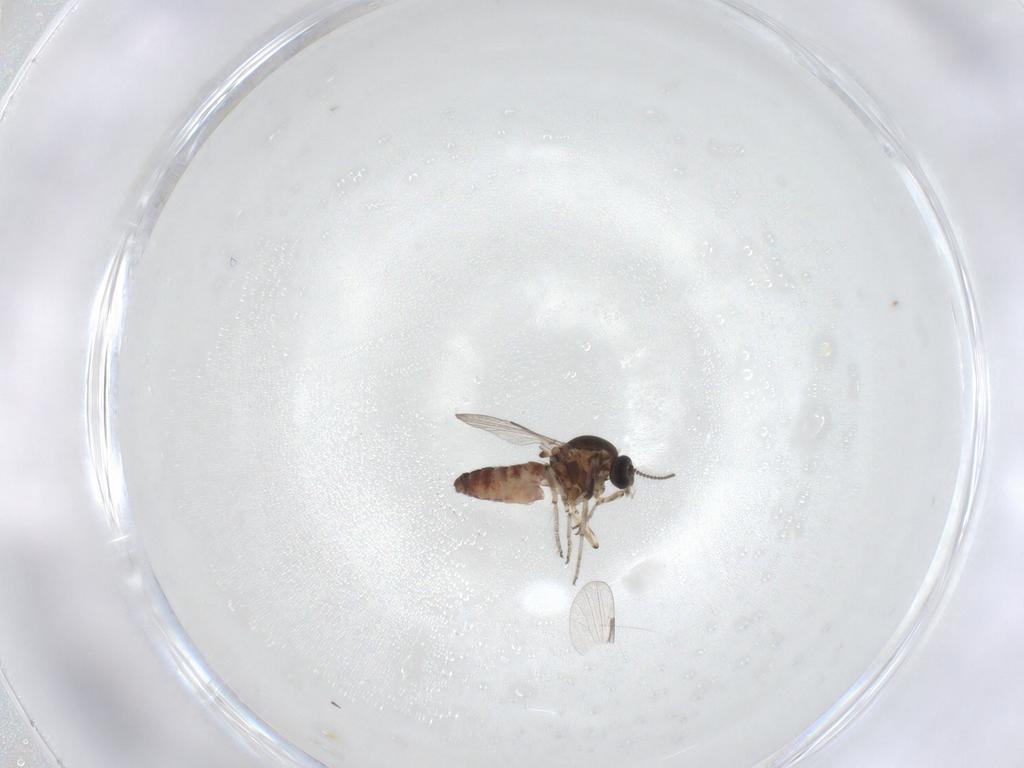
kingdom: Animalia
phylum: Arthropoda
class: Insecta
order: Diptera
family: Ceratopogonidae
